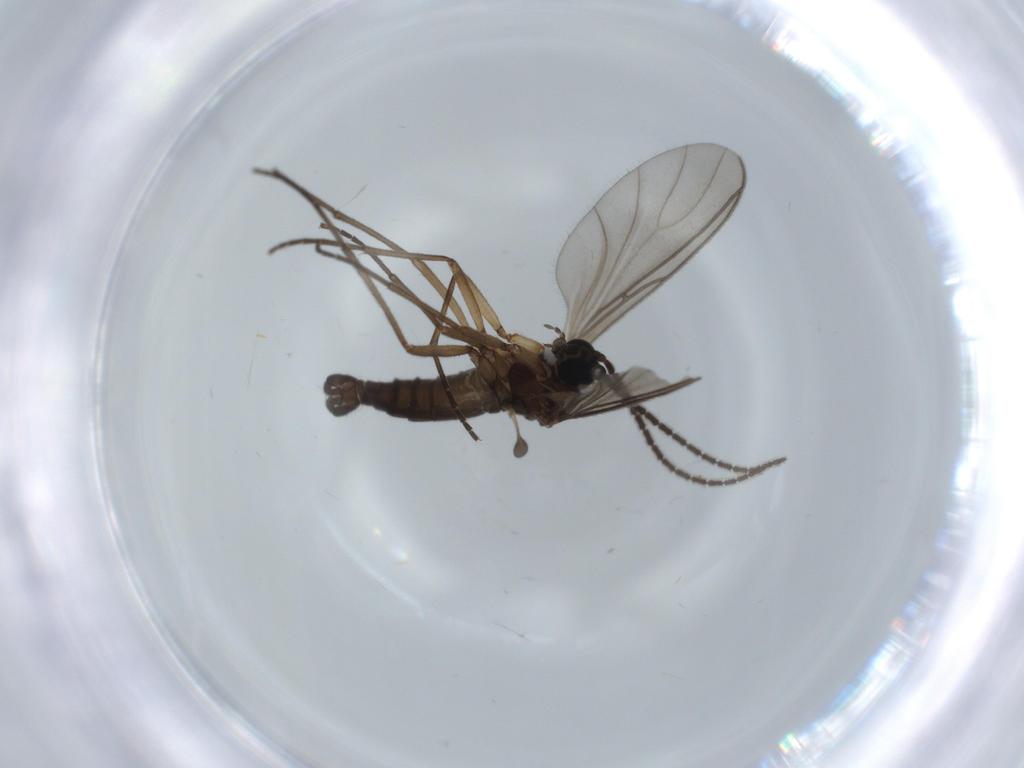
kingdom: Animalia
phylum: Arthropoda
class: Insecta
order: Diptera
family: Sciaridae
